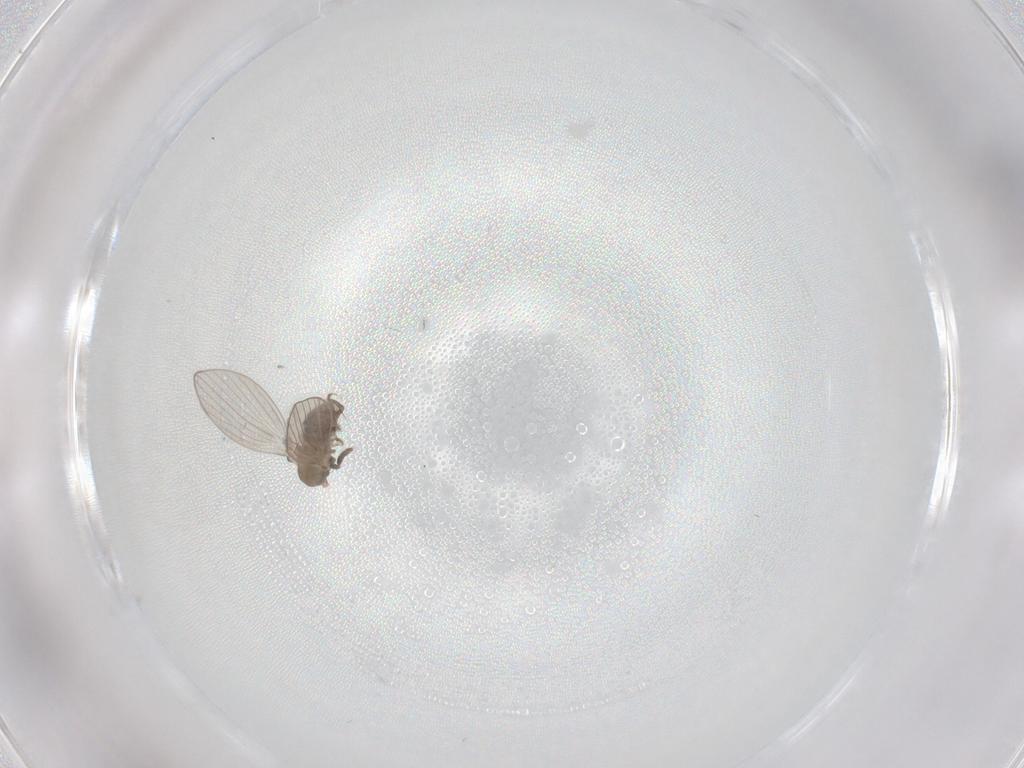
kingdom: Animalia
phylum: Arthropoda
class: Insecta
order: Diptera
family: Psychodidae
